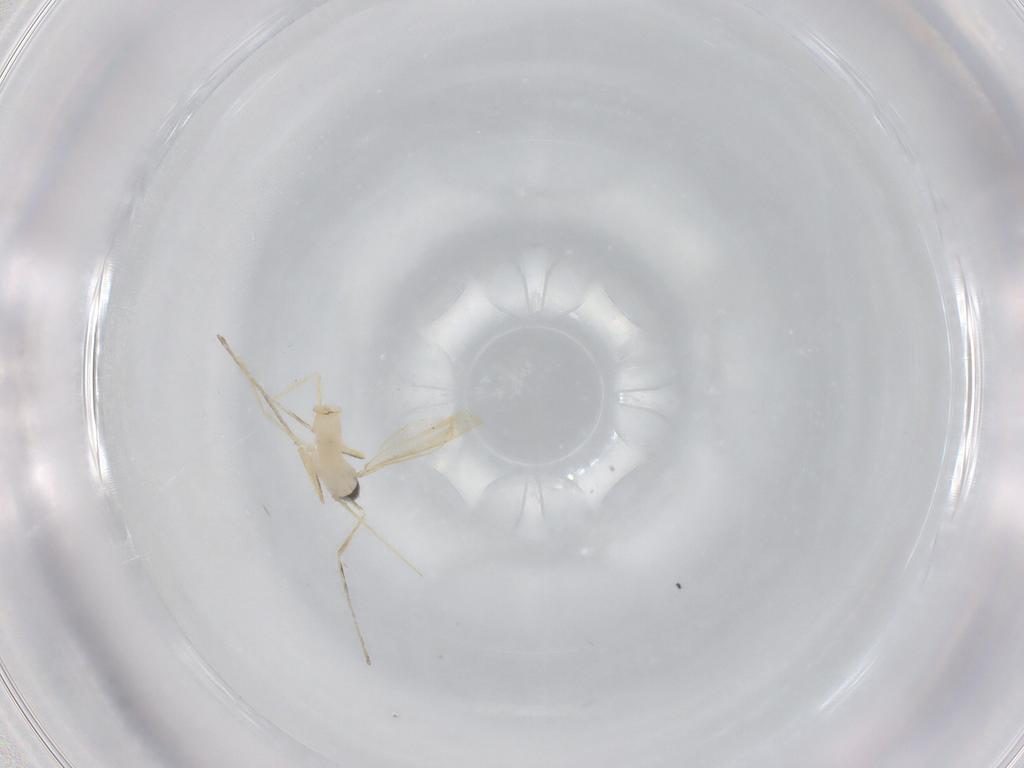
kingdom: Animalia
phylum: Arthropoda
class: Insecta
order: Diptera
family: Cecidomyiidae
